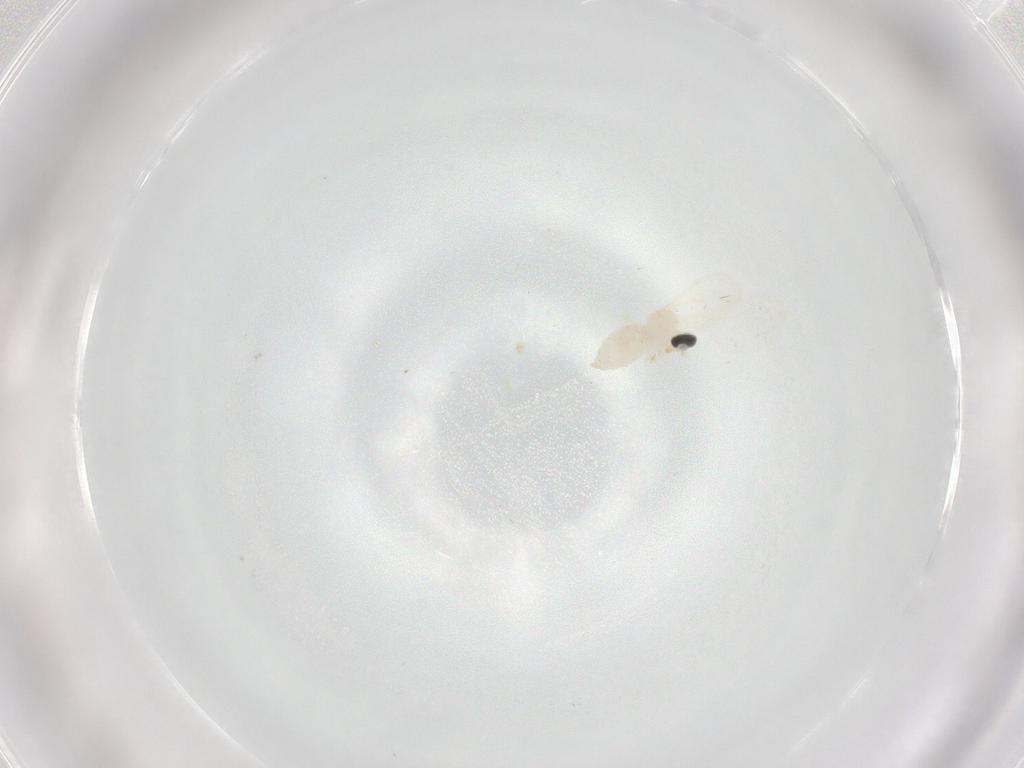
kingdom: Animalia
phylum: Arthropoda
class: Insecta
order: Diptera
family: Cecidomyiidae
